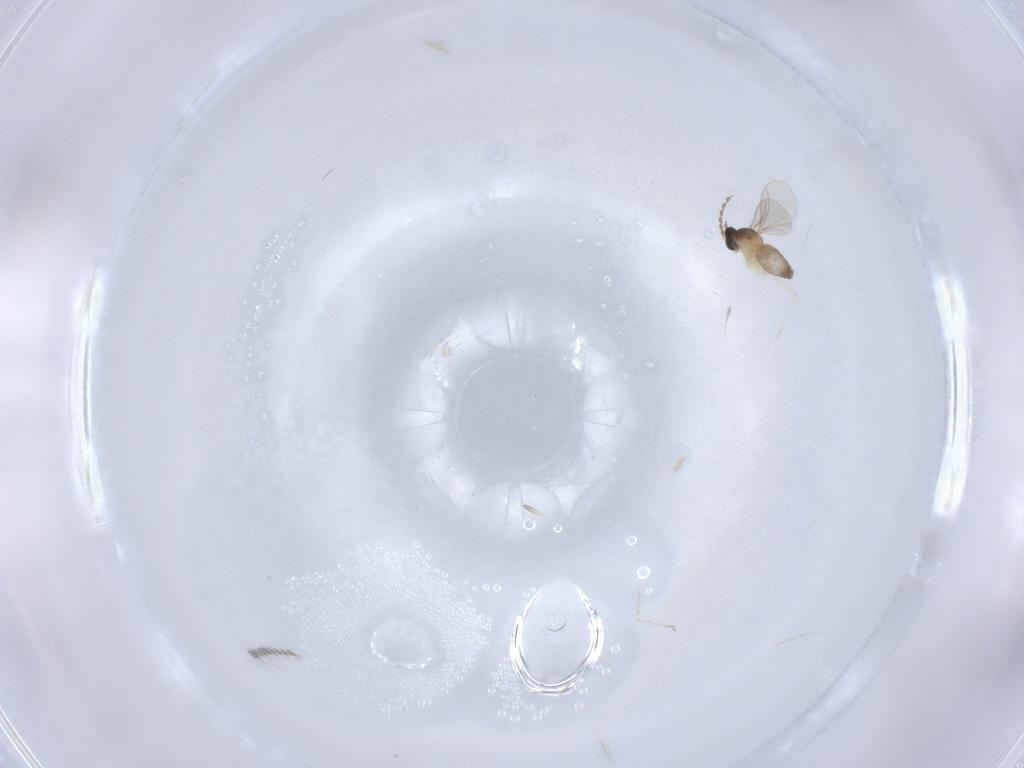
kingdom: Animalia
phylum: Arthropoda
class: Insecta
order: Diptera
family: Cecidomyiidae
